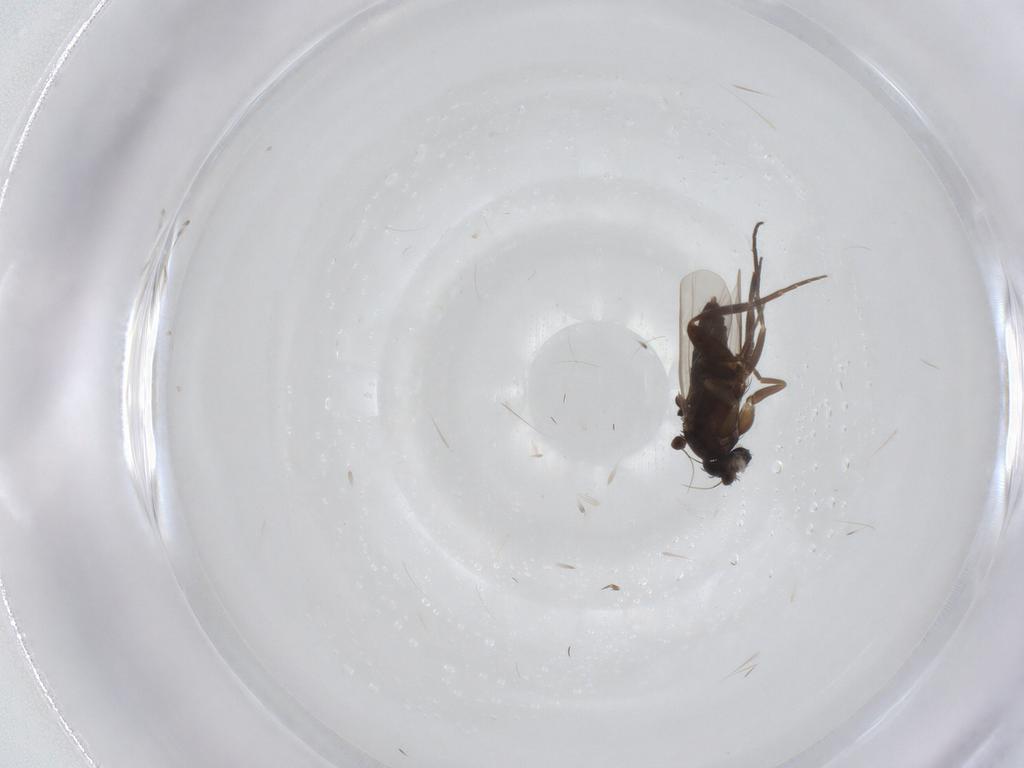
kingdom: Animalia
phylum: Arthropoda
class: Insecta
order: Diptera
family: Phoridae
